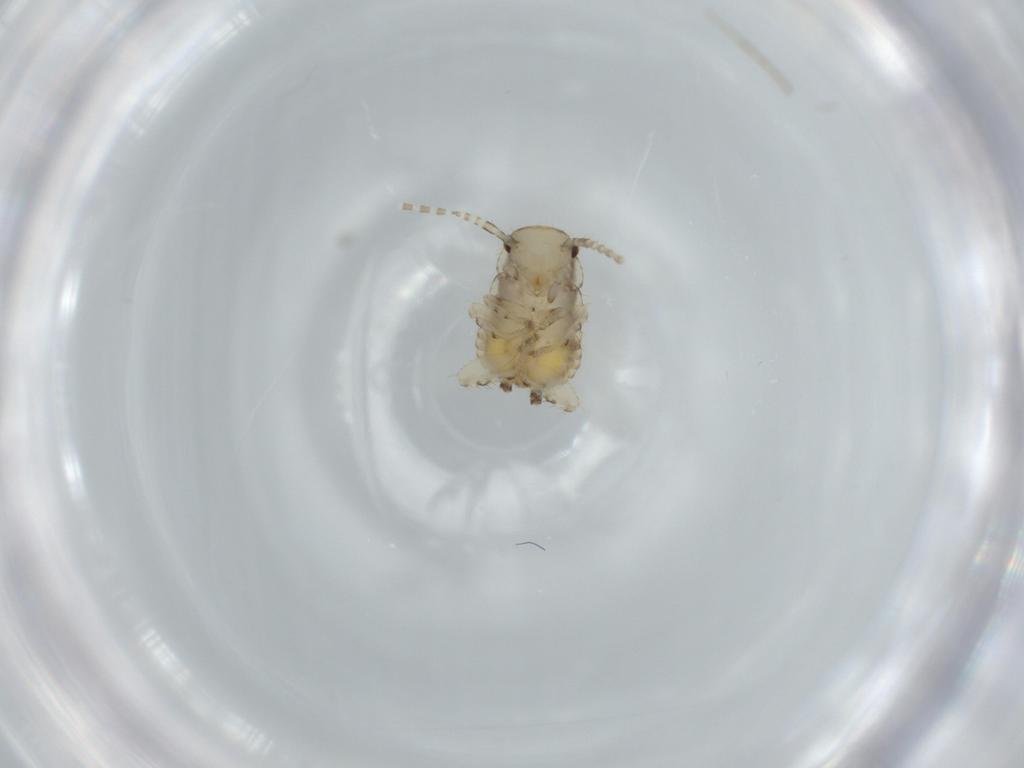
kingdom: Animalia
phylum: Arthropoda
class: Insecta
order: Blattodea
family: Ectobiidae
